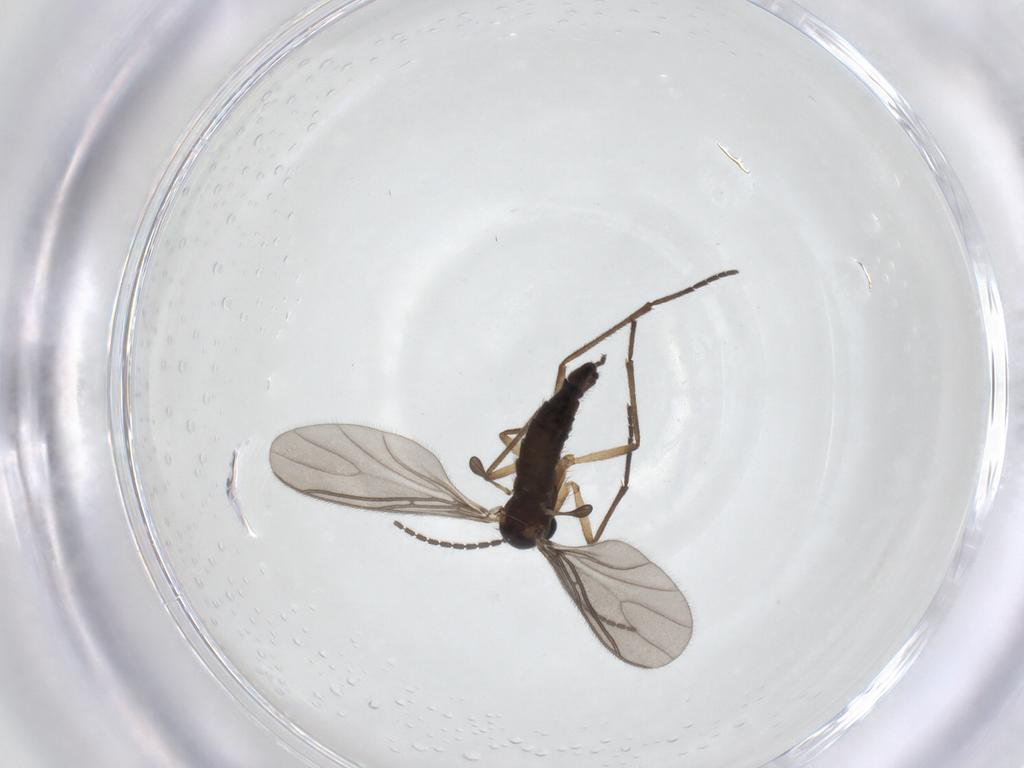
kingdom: Animalia
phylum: Arthropoda
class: Insecta
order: Diptera
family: Sciaridae
